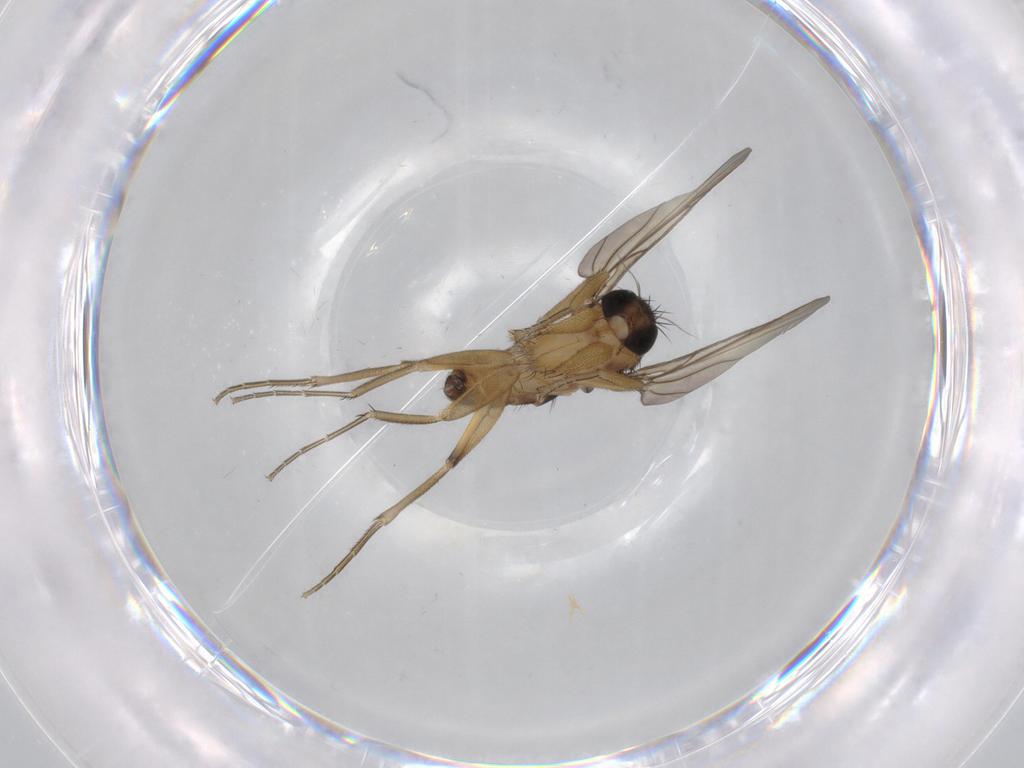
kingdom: Animalia
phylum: Arthropoda
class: Insecta
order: Diptera
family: Phoridae
